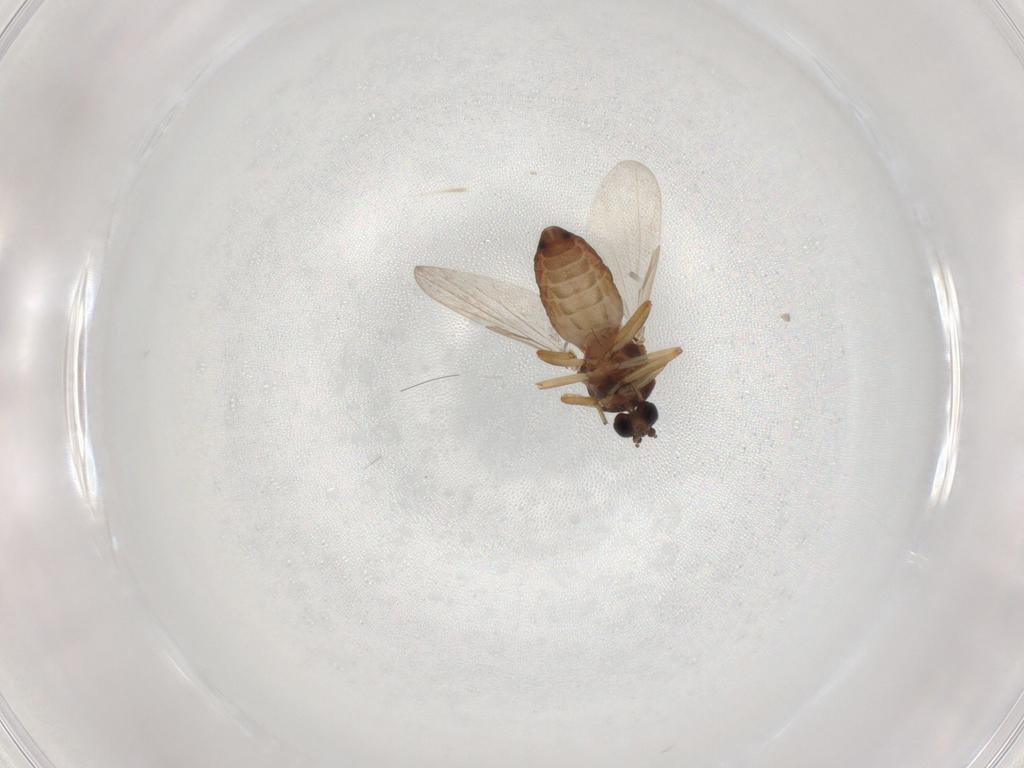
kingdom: Animalia
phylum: Arthropoda
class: Insecta
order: Diptera
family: Ceratopogonidae
